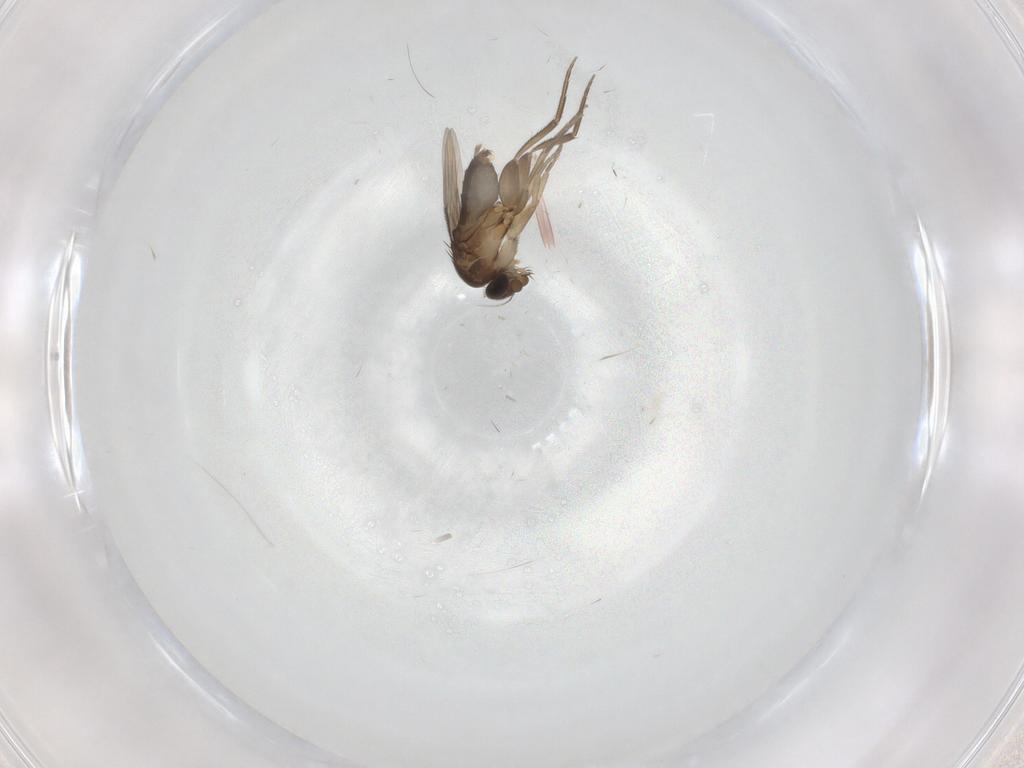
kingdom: Animalia
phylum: Arthropoda
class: Insecta
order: Diptera
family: Phoridae
